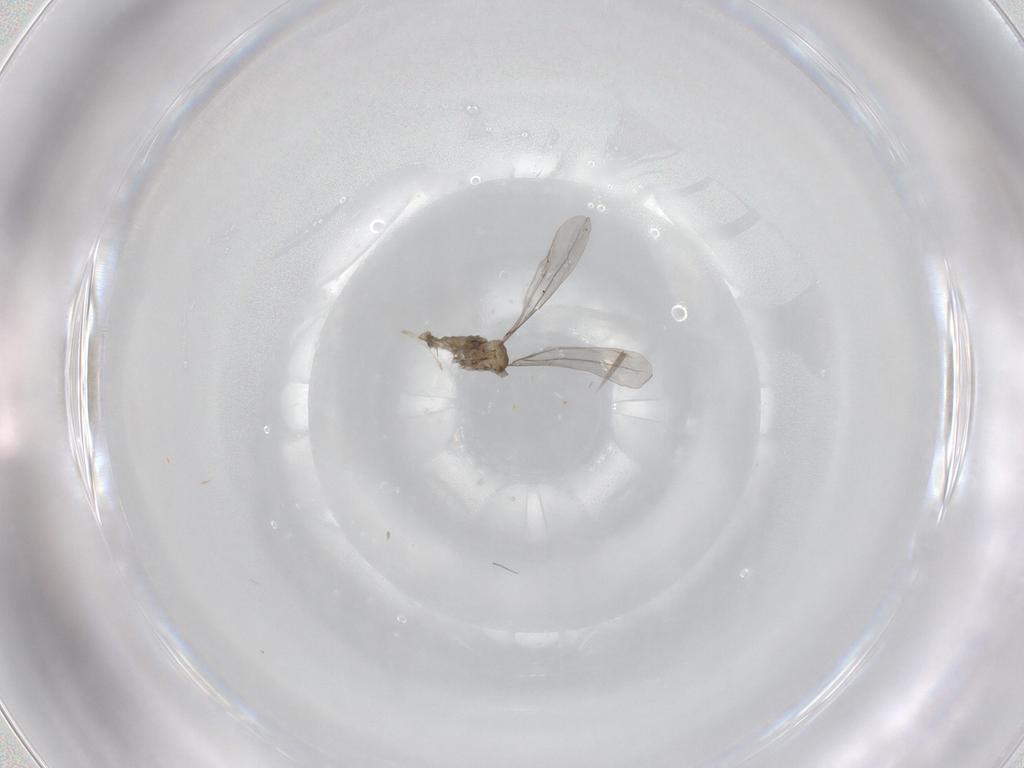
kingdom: Animalia
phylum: Arthropoda
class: Insecta
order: Diptera
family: Cecidomyiidae
